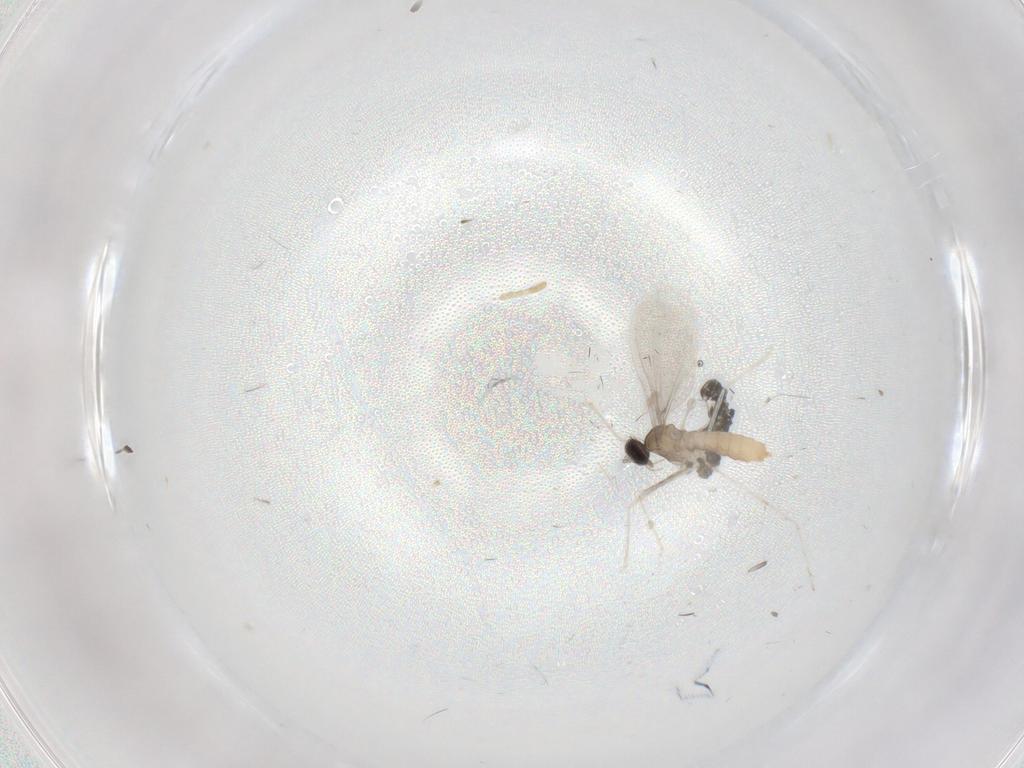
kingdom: Animalia
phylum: Arthropoda
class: Insecta
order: Diptera
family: Cecidomyiidae
